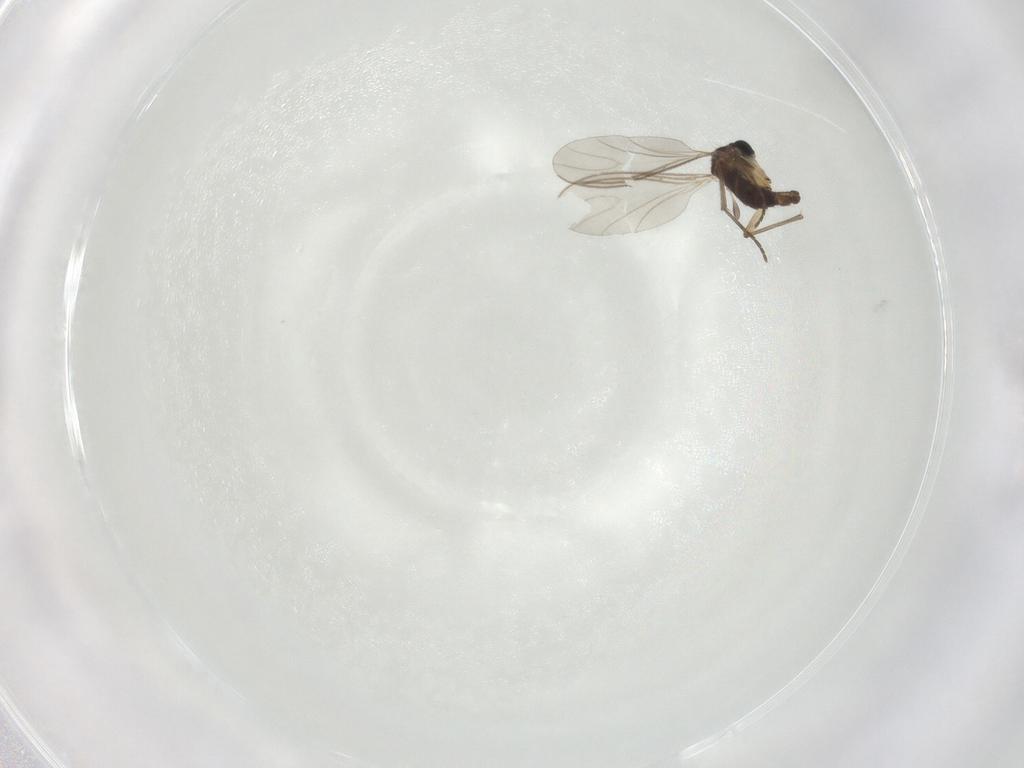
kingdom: Animalia
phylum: Arthropoda
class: Insecta
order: Diptera
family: Sciaridae
